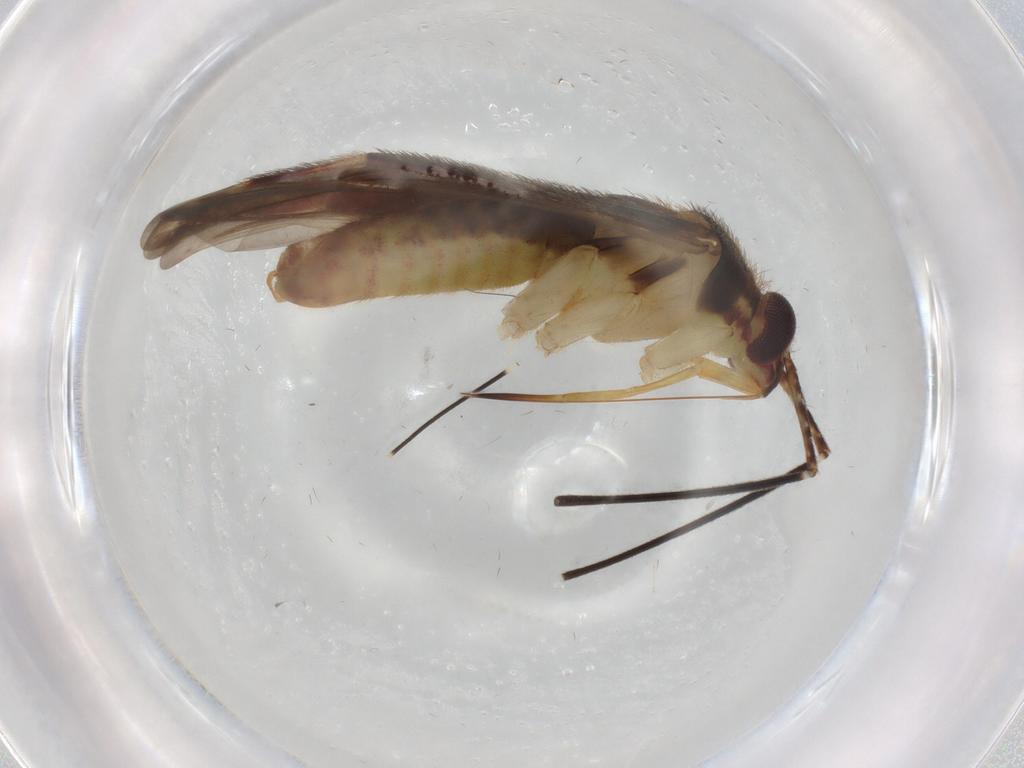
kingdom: Animalia
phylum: Arthropoda
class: Insecta
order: Hemiptera
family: Miridae
